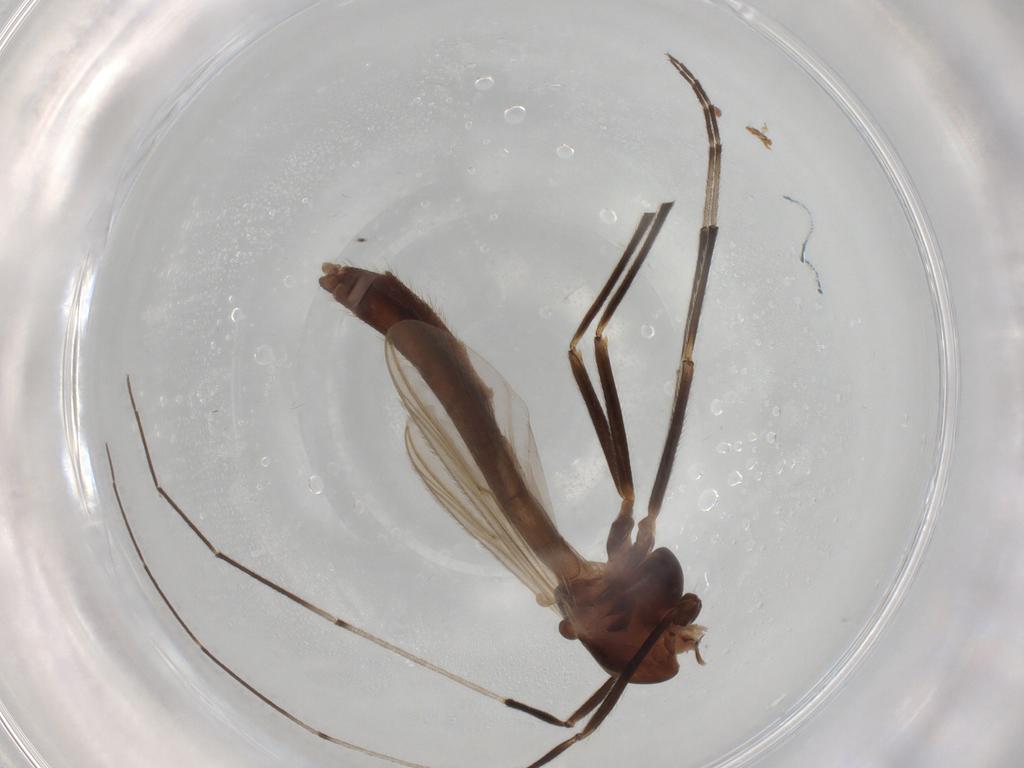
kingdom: Animalia
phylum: Arthropoda
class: Insecta
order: Diptera
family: Chironomidae
